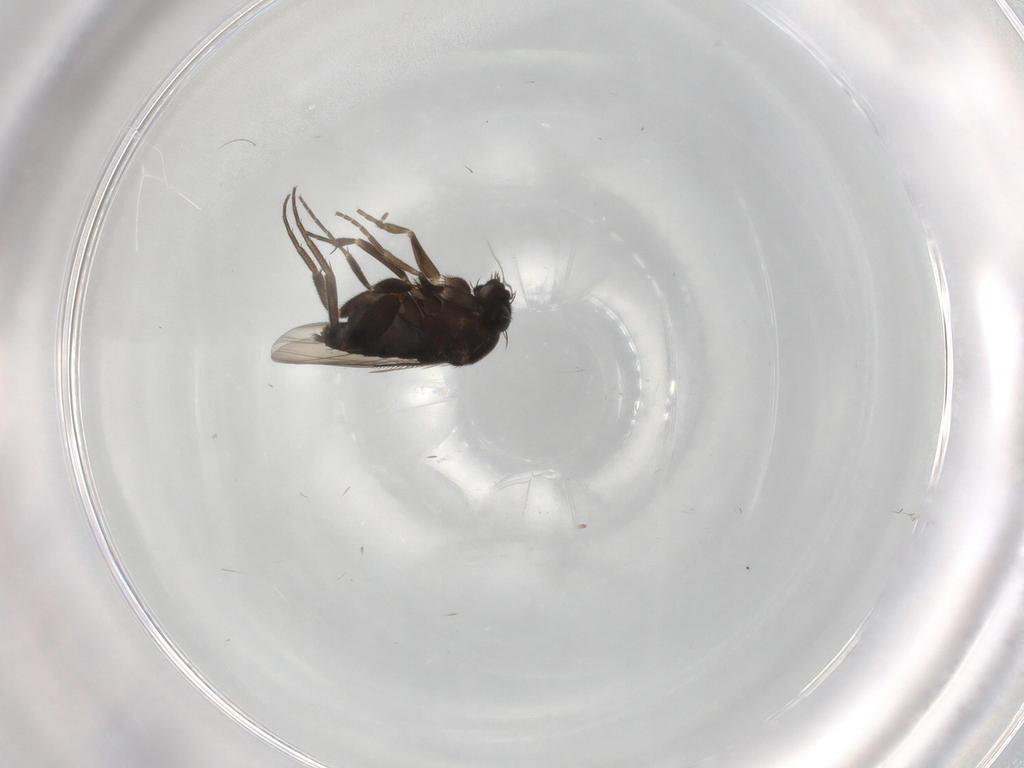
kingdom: Animalia
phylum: Arthropoda
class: Insecta
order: Diptera
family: Phoridae
